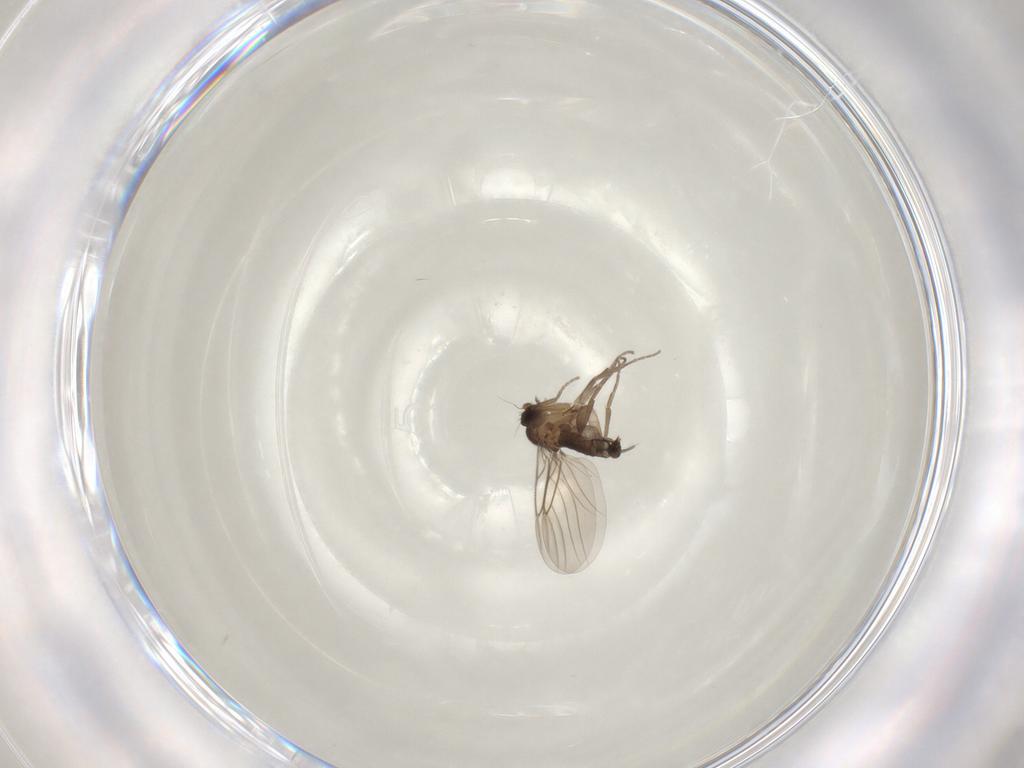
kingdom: Animalia
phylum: Arthropoda
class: Insecta
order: Diptera
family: Phoridae
